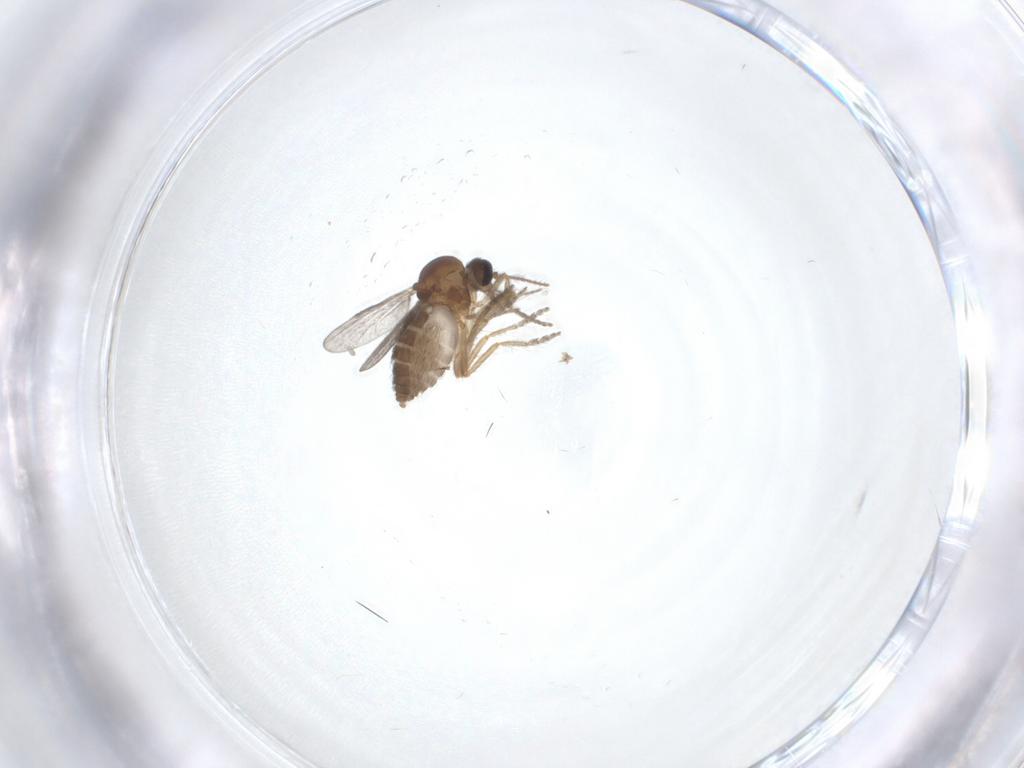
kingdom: Animalia
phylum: Arthropoda
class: Insecta
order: Diptera
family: Ceratopogonidae
